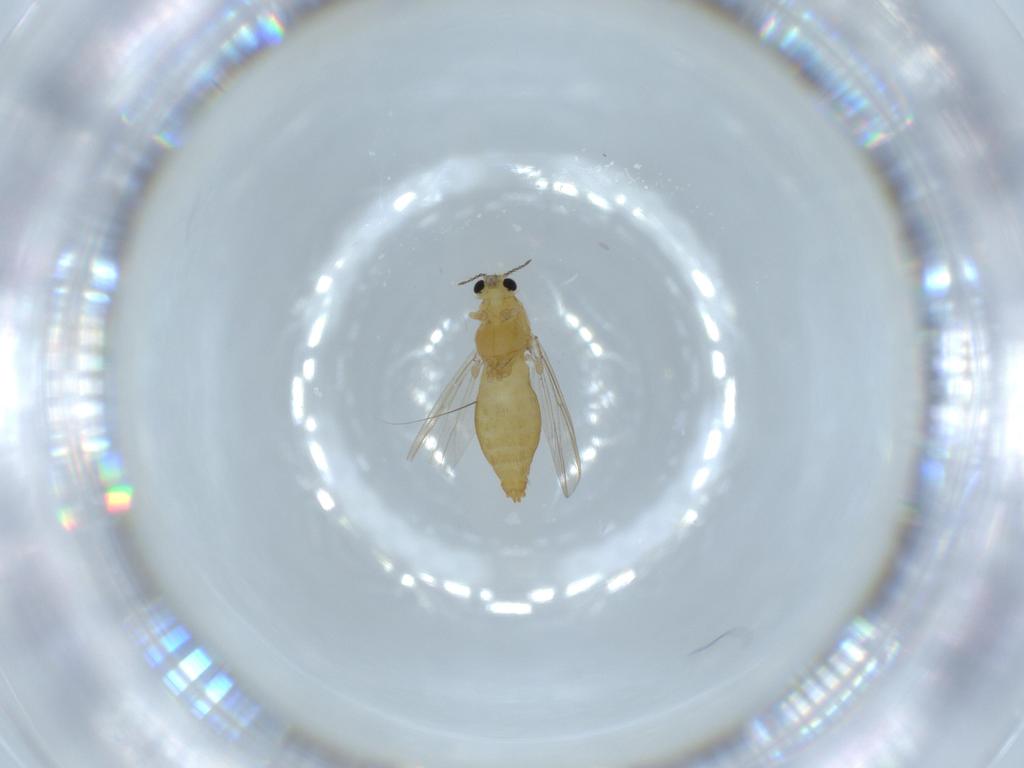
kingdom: Animalia
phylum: Arthropoda
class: Insecta
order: Diptera
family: Chironomidae
